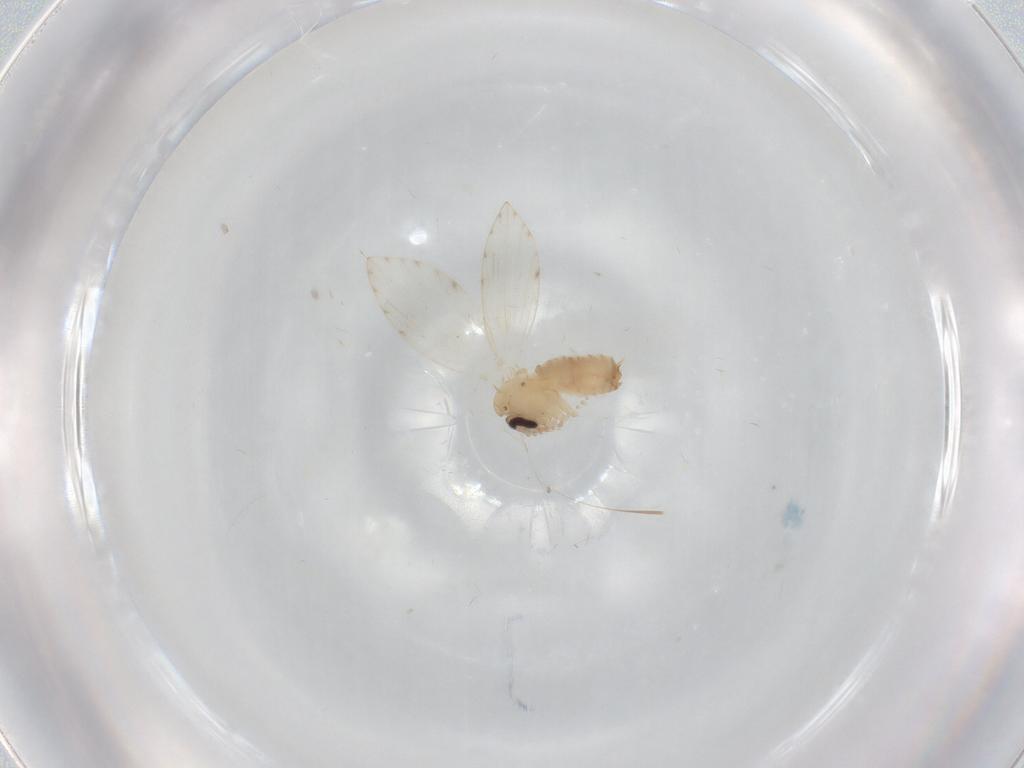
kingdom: Animalia
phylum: Arthropoda
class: Insecta
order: Diptera
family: Psychodidae
